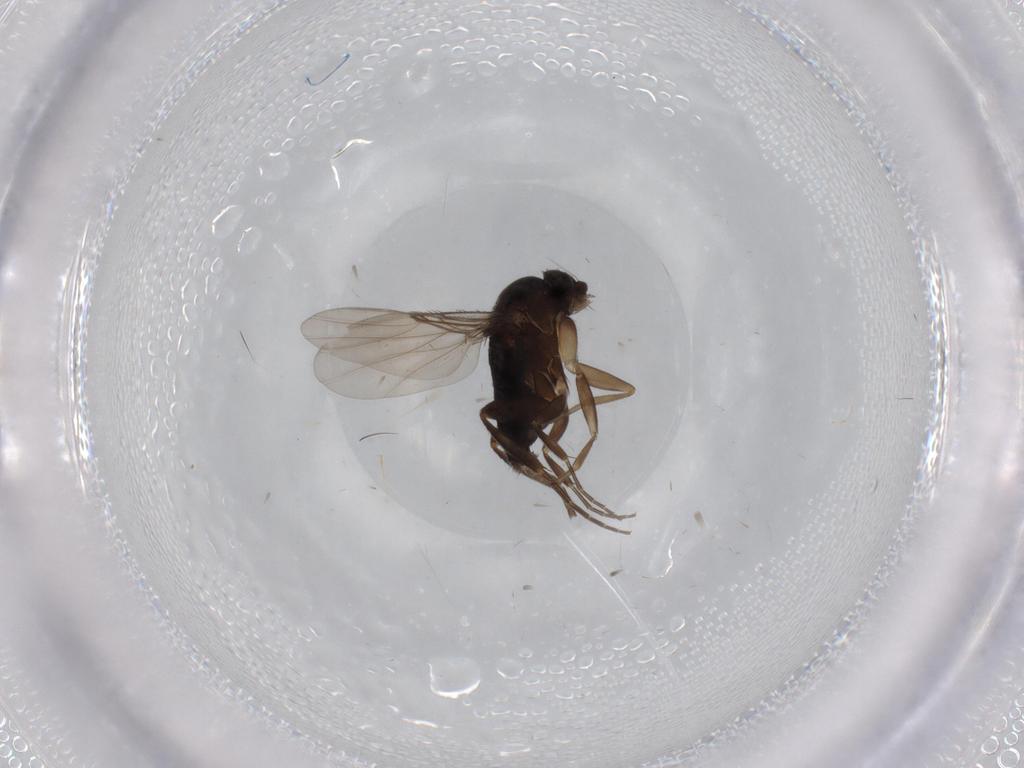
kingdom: Animalia
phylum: Arthropoda
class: Insecta
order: Diptera
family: Phoridae
